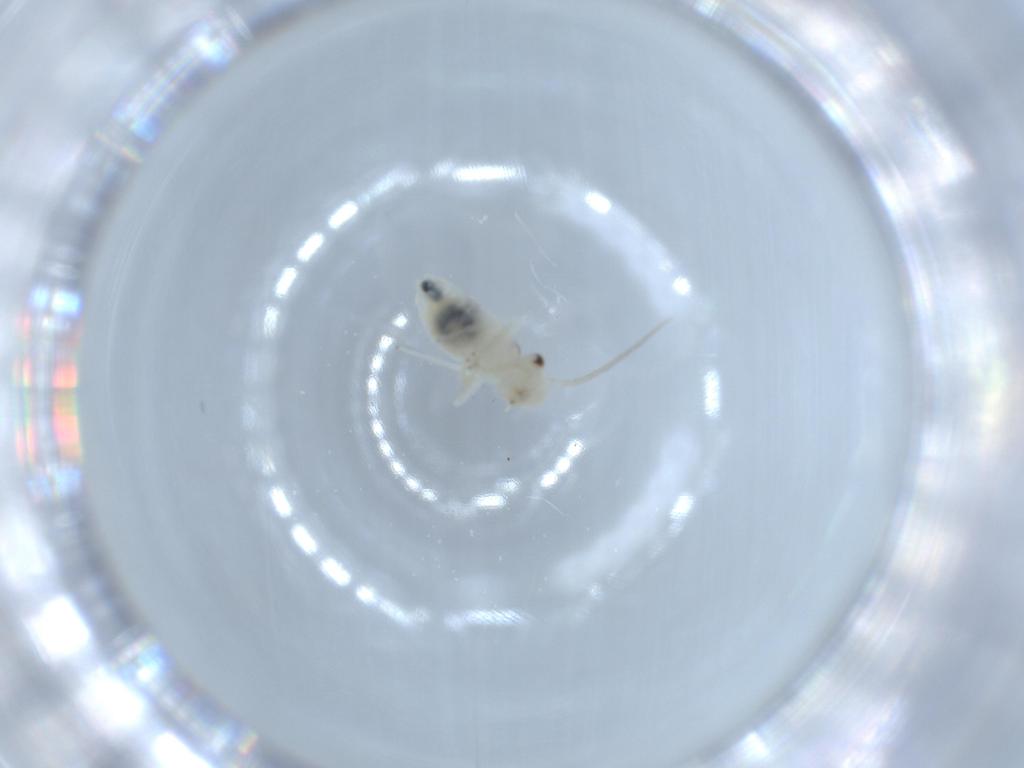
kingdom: Animalia
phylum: Arthropoda
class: Insecta
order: Psocodea
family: Caeciliusidae
